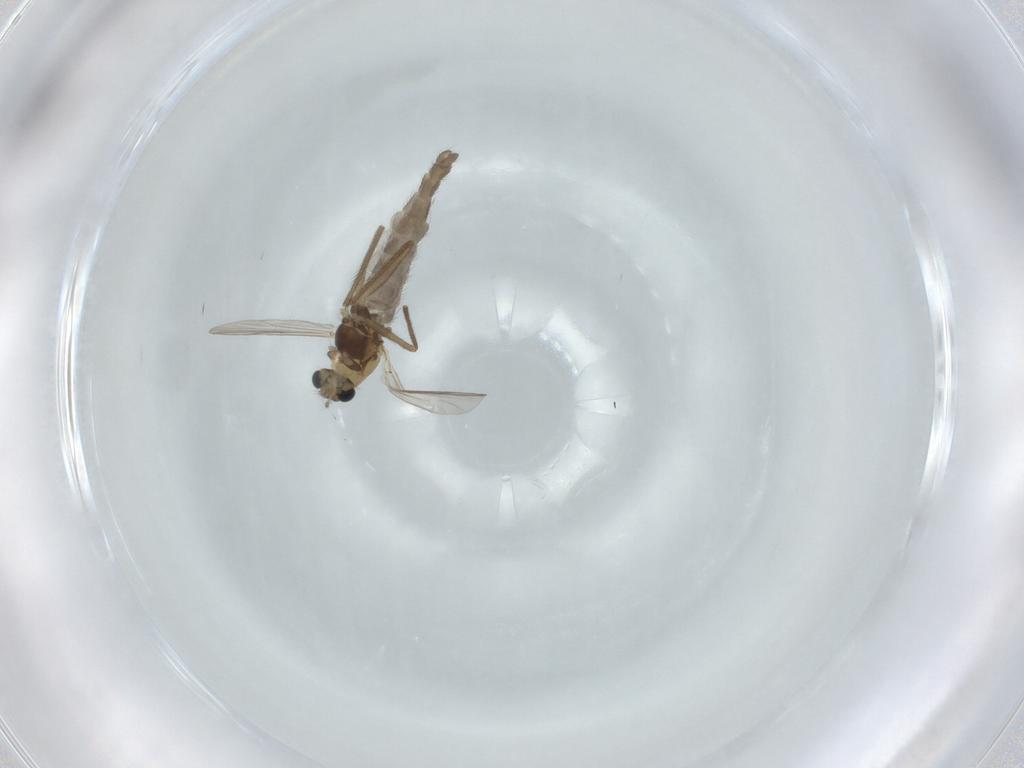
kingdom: Animalia
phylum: Arthropoda
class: Insecta
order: Diptera
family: Chironomidae
